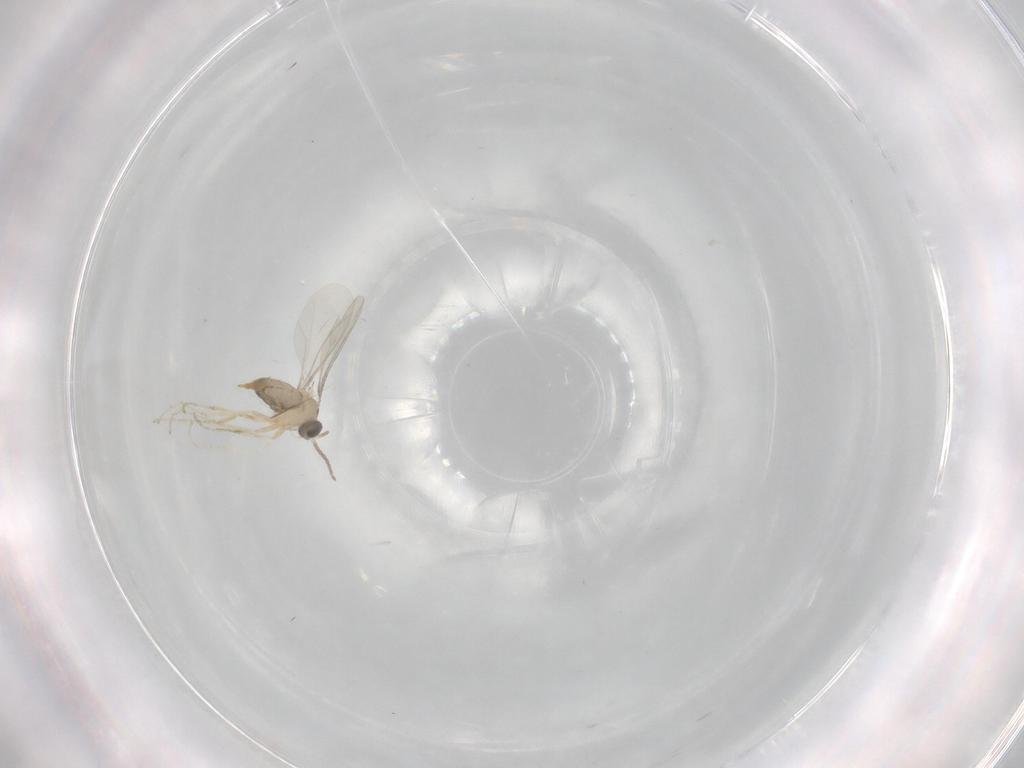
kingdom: Animalia
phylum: Arthropoda
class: Insecta
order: Diptera
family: Cecidomyiidae
